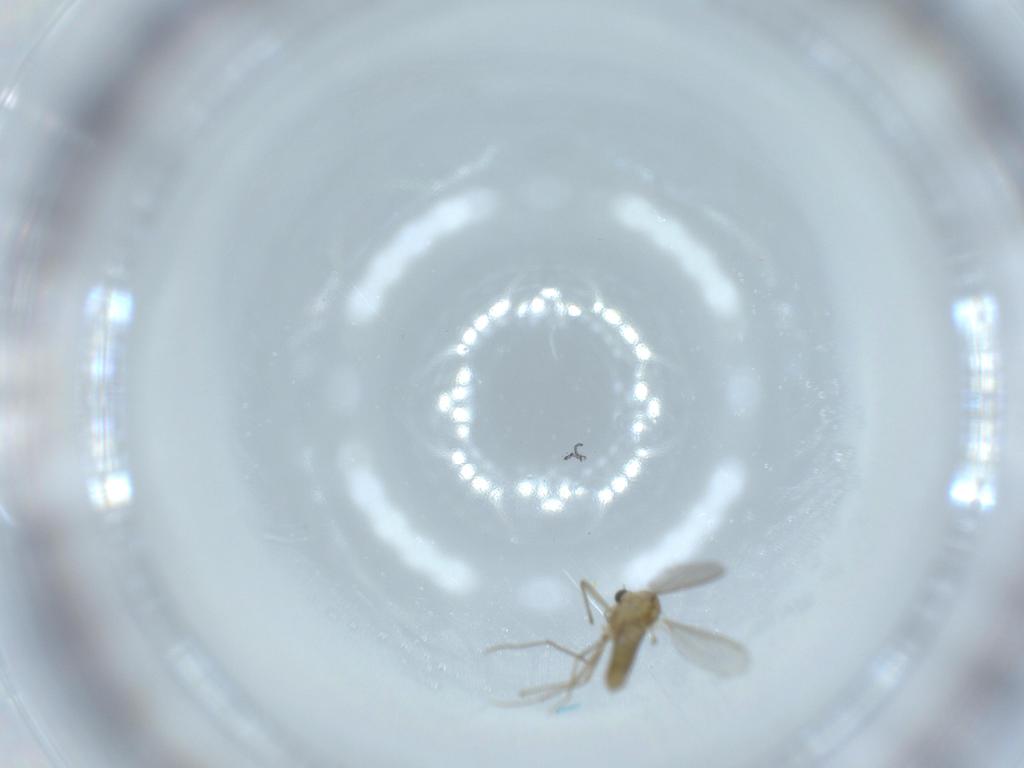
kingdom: Animalia
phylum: Arthropoda
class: Insecta
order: Diptera
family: Chironomidae
